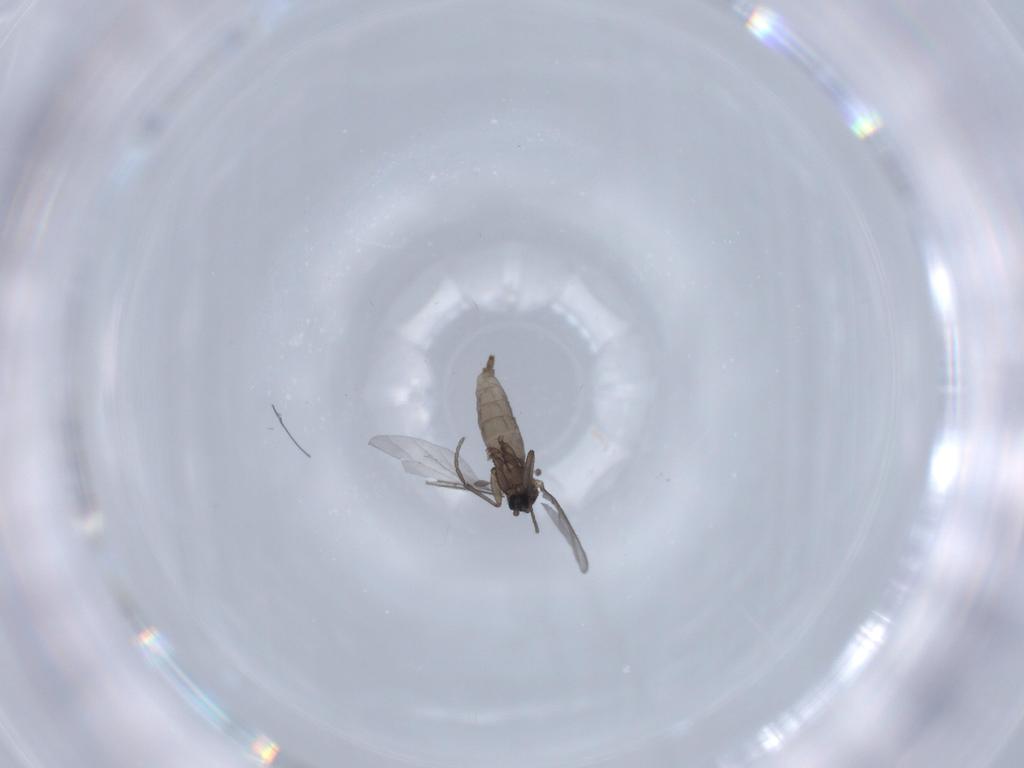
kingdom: Animalia
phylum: Arthropoda
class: Insecta
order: Diptera
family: Sciaridae
